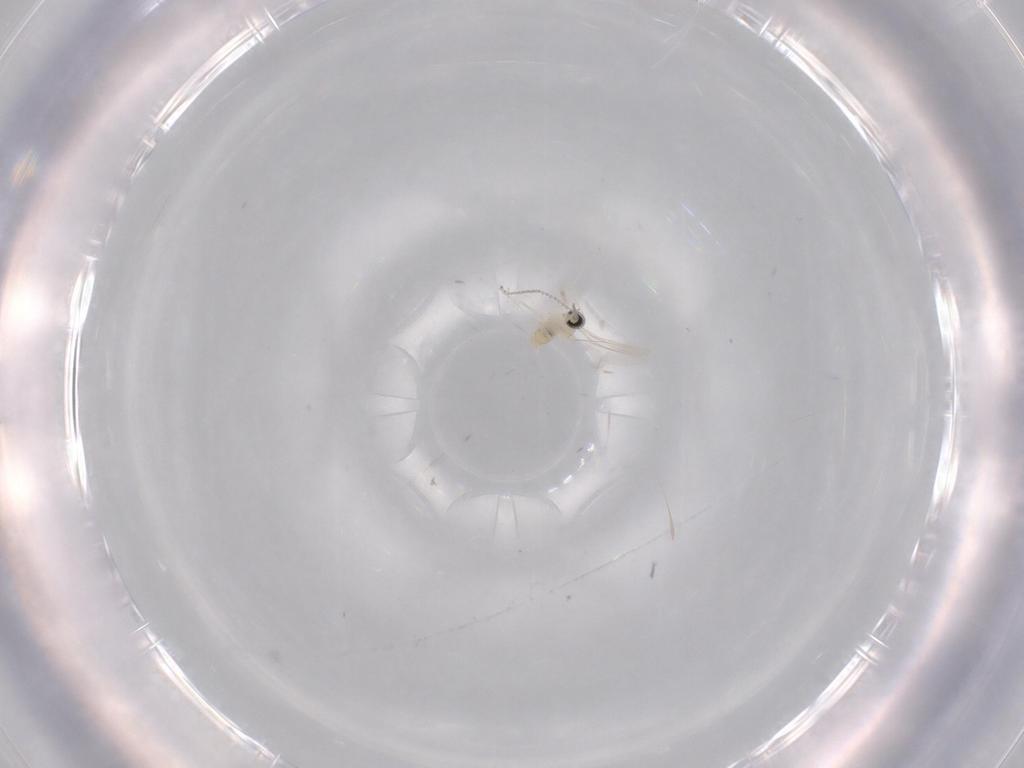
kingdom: Animalia
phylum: Arthropoda
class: Insecta
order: Diptera
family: Cecidomyiidae
